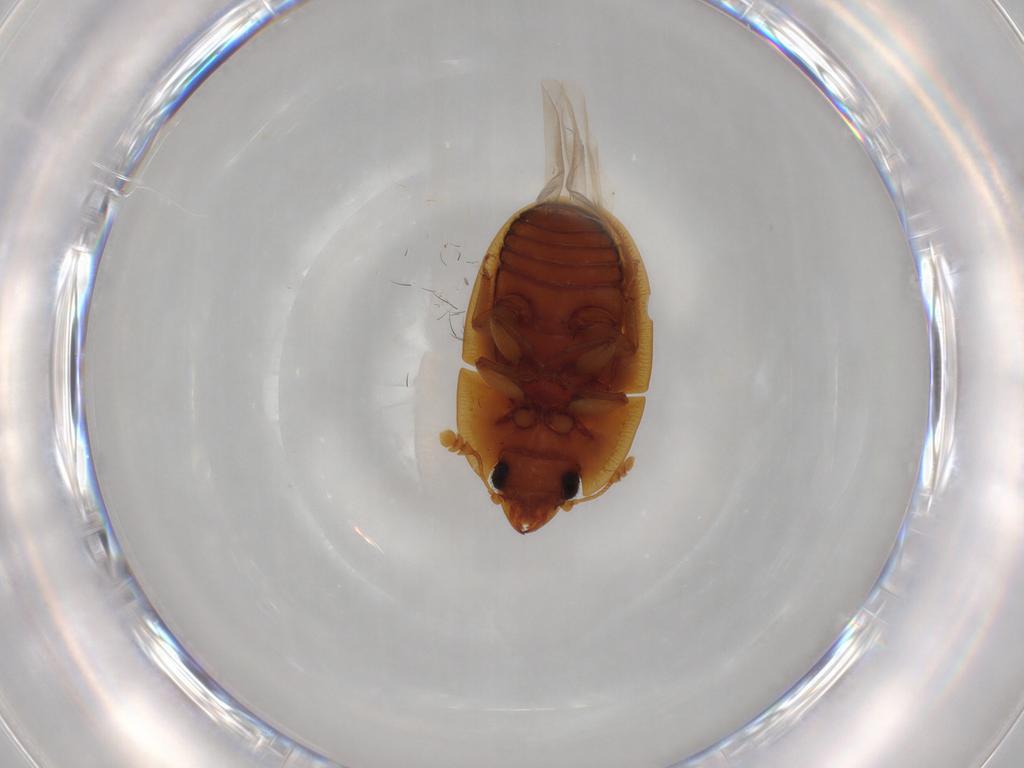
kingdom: Animalia
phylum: Arthropoda
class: Insecta
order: Coleoptera
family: Nitidulidae
